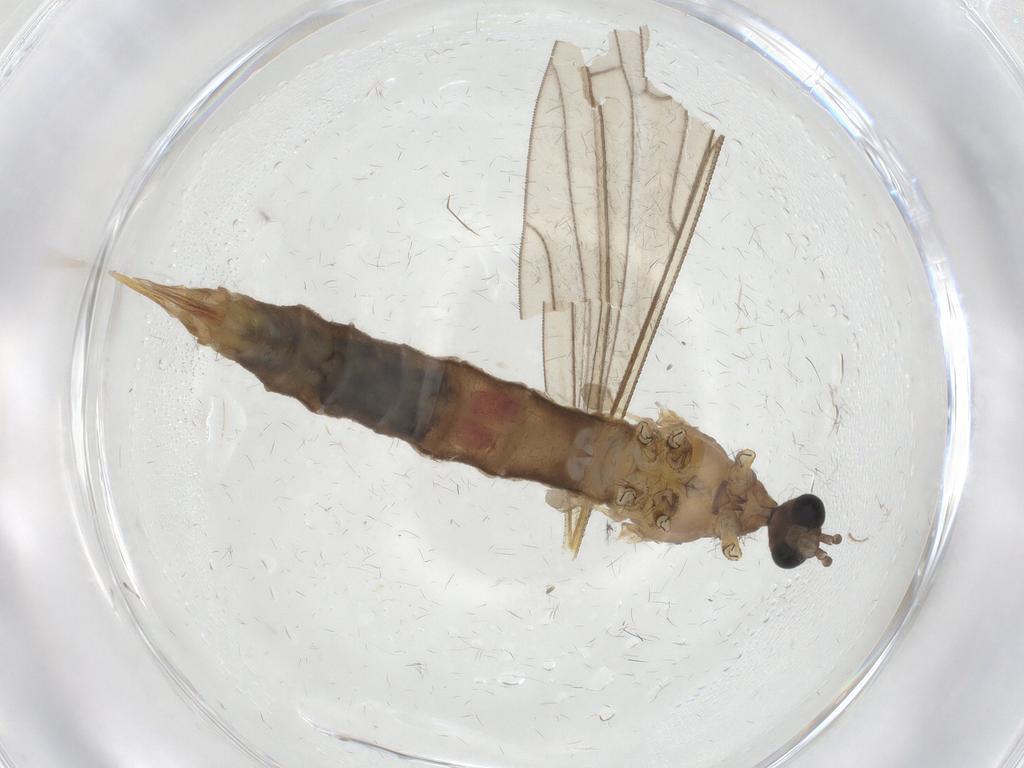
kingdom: Animalia
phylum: Arthropoda
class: Insecta
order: Diptera
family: Limoniidae
